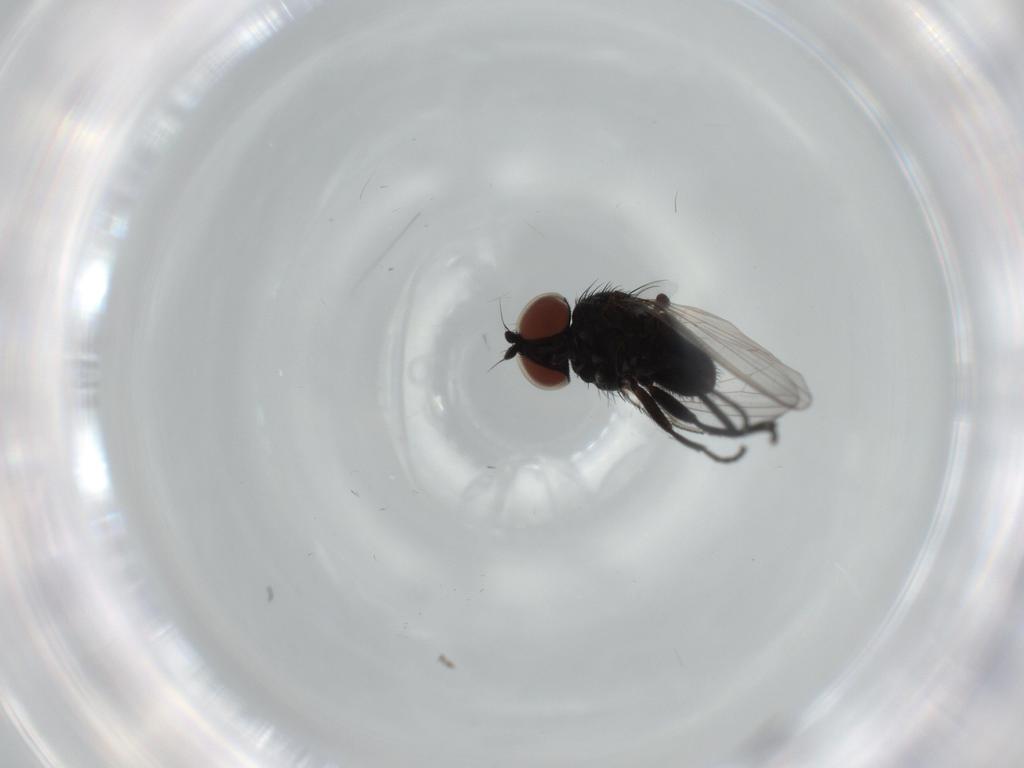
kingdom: Animalia
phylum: Arthropoda
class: Insecta
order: Diptera
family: Milichiidae
